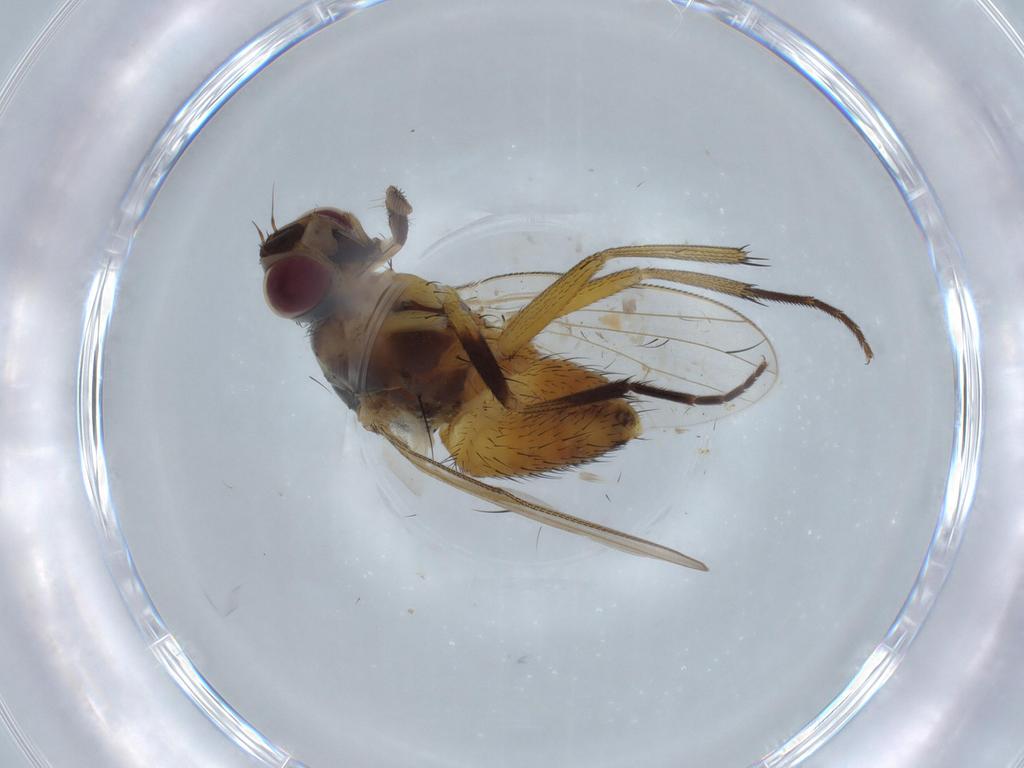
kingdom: Animalia
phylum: Arthropoda
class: Insecta
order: Diptera
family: Muscidae
